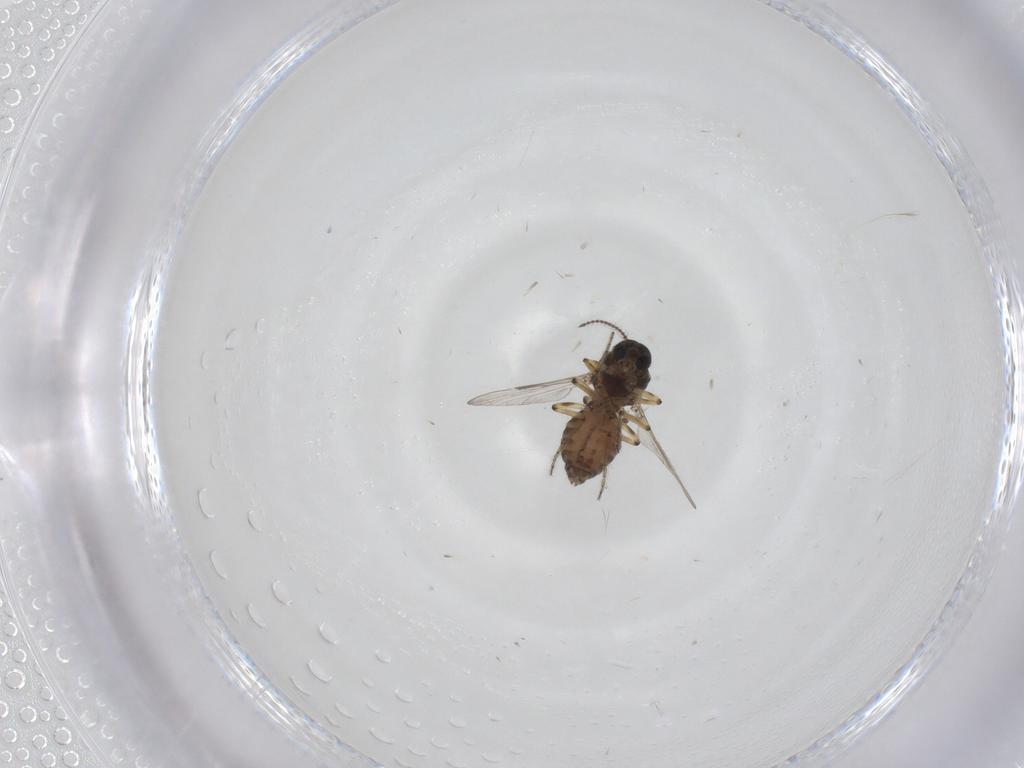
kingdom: Animalia
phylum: Arthropoda
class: Insecta
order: Diptera
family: Ceratopogonidae
